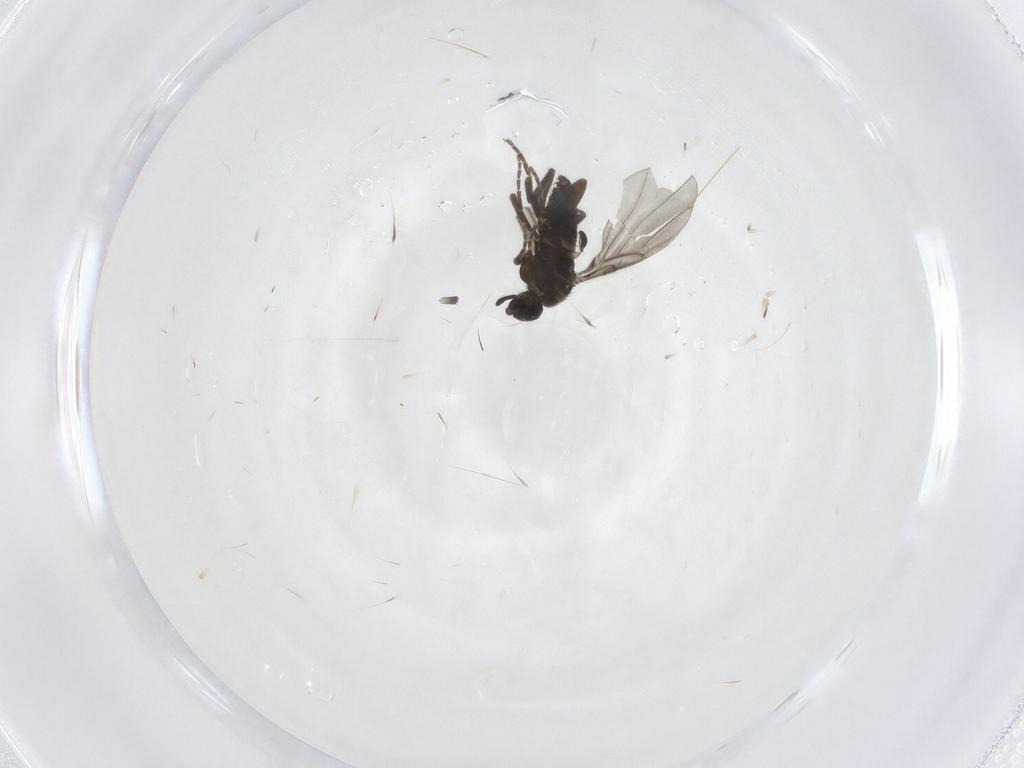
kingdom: Animalia
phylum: Arthropoda
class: Insecta
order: Diptera
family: Phoridae
